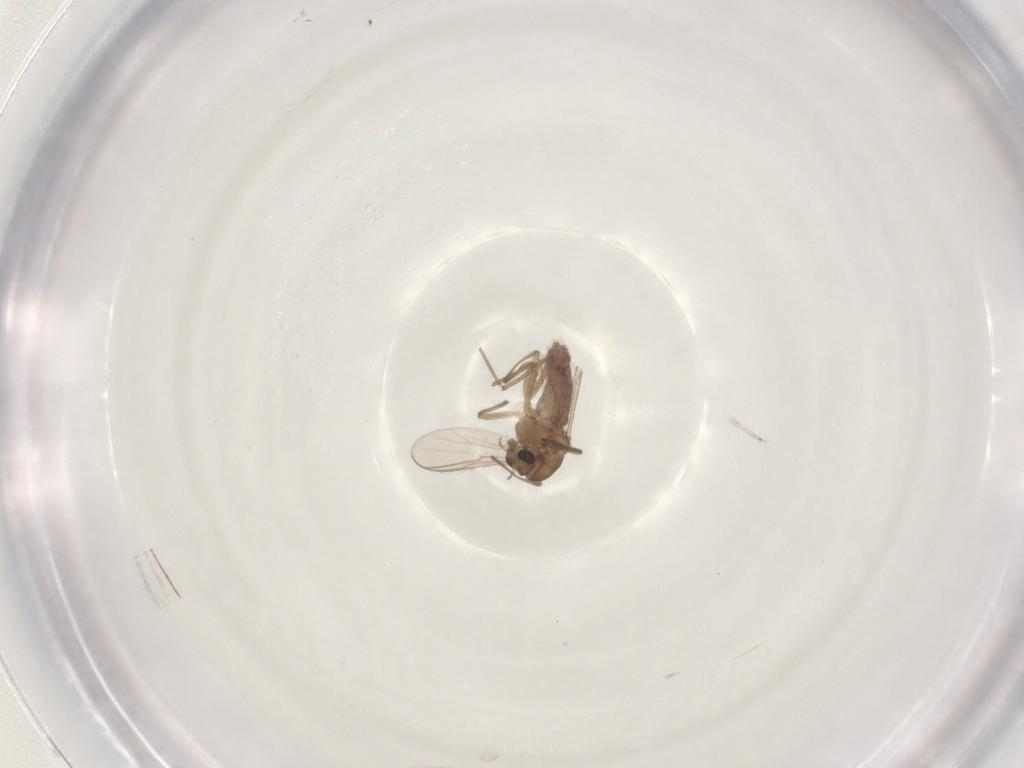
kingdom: Animalia
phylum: Arthropoda
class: Insecta
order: Diptera
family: Chironomidae
